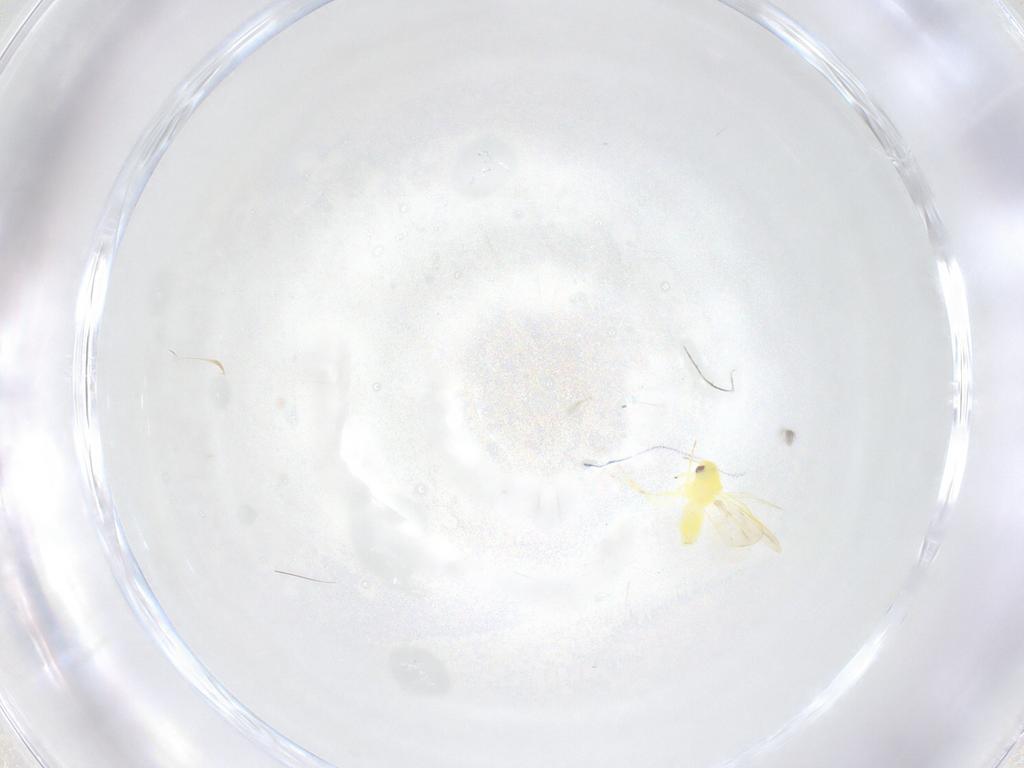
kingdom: Animalia
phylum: Arthropoda
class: Insecta
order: Hemiptera
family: Aleyrodidae
